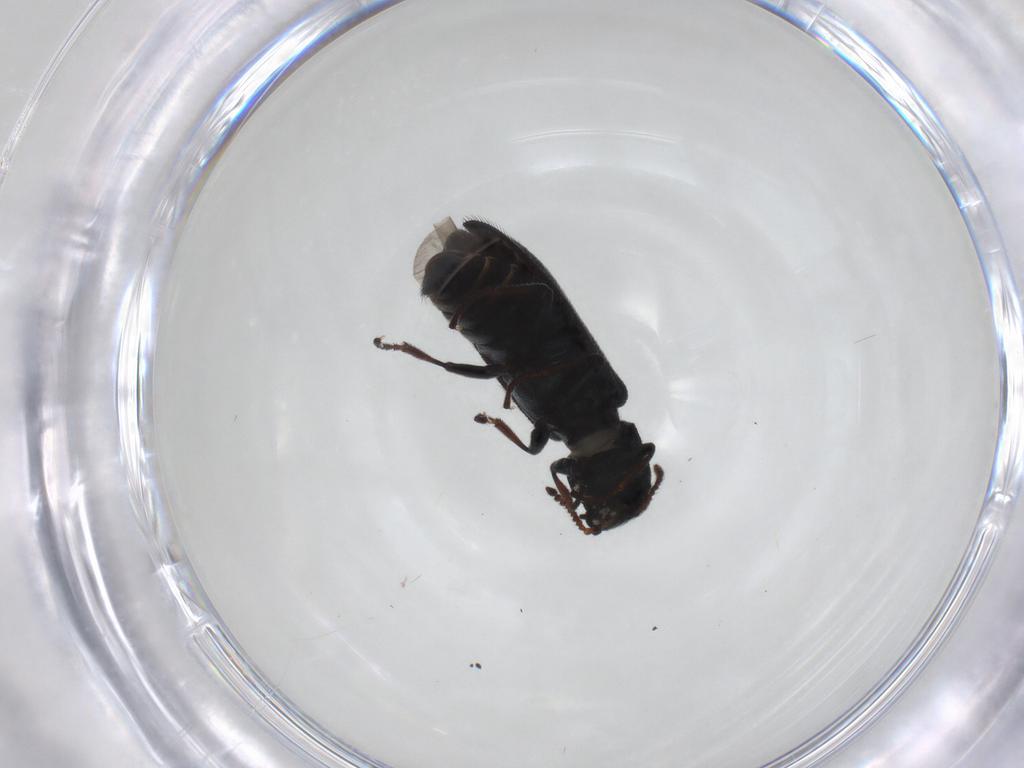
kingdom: Animalia
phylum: Arthropoda
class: Insecta
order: Coleoptera
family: Melyridae
